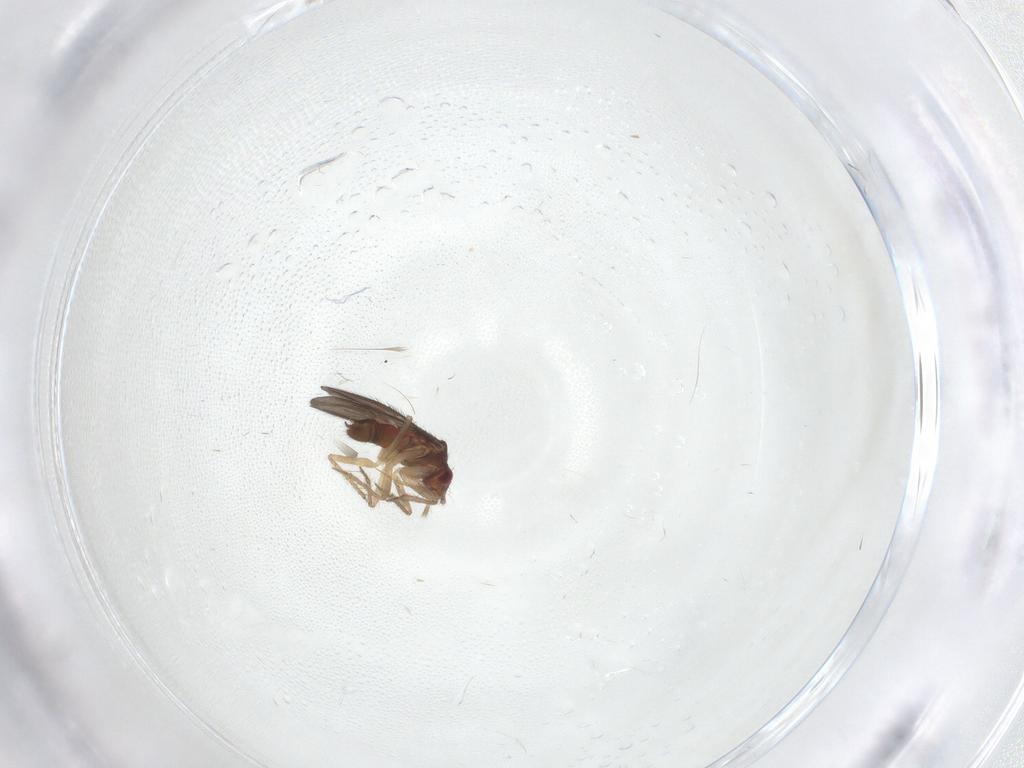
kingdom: Animalia
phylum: Arthropoda
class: Insecta
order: Hemiptera
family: Ceratocombidae
